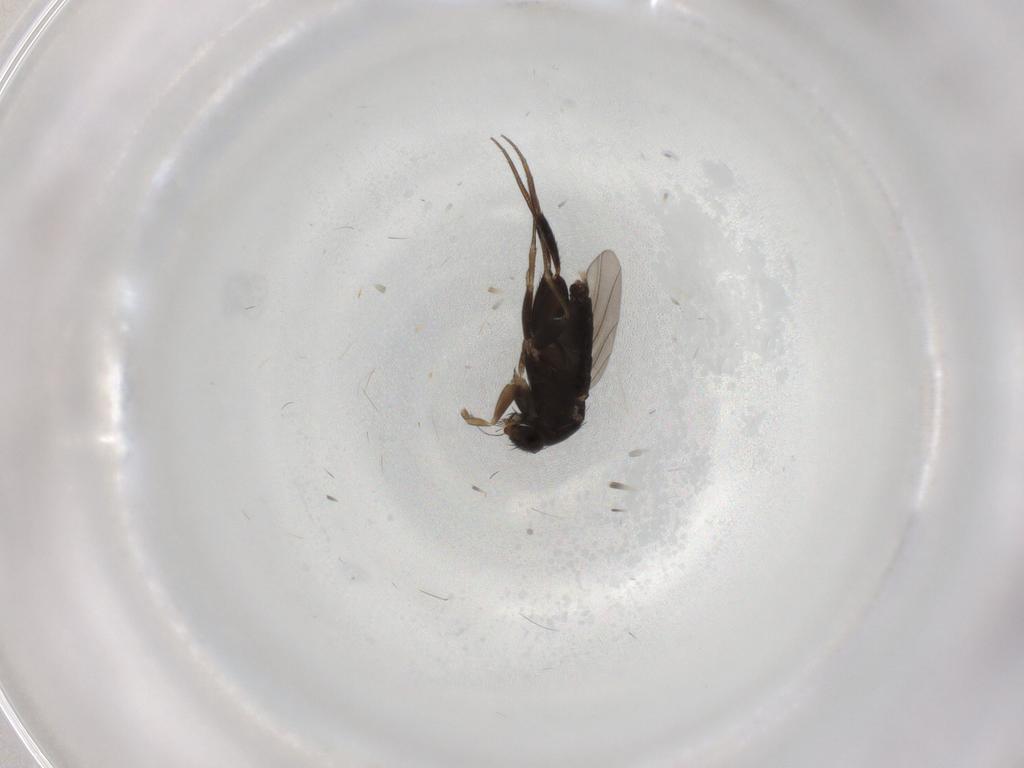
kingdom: Animalia
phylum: Arthropoda
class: Insecta
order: Diptera
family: Phoridae
